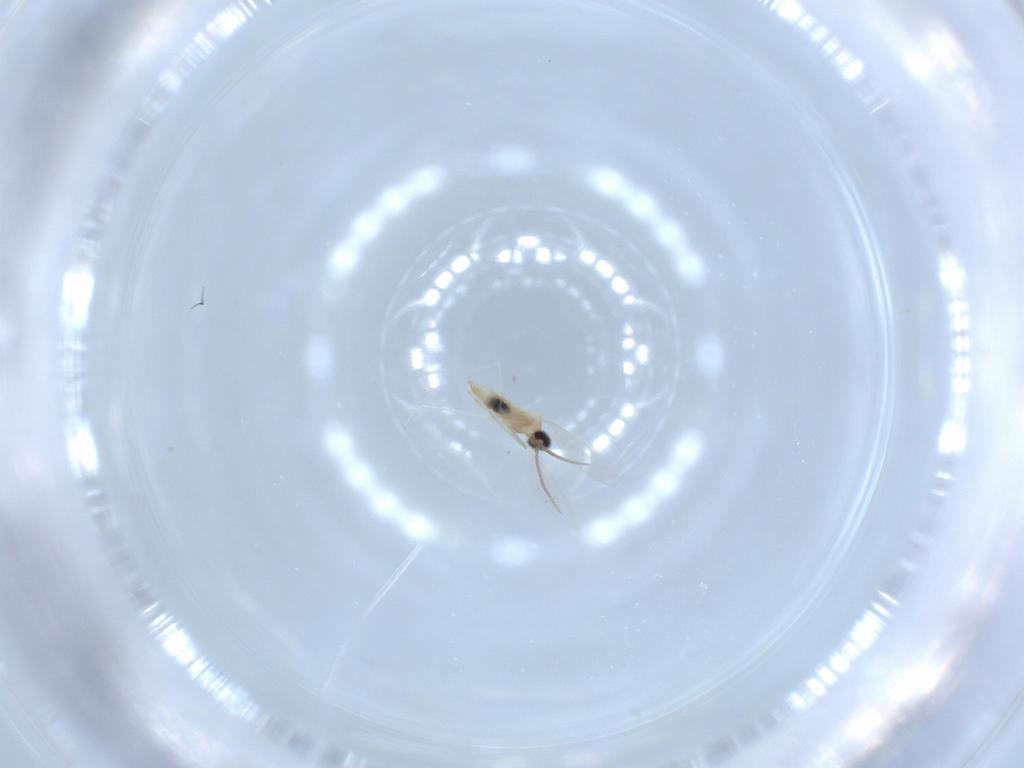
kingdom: Animalia
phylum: Arthropoda
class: Insecta
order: Diptera
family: Cecidomyiidae
